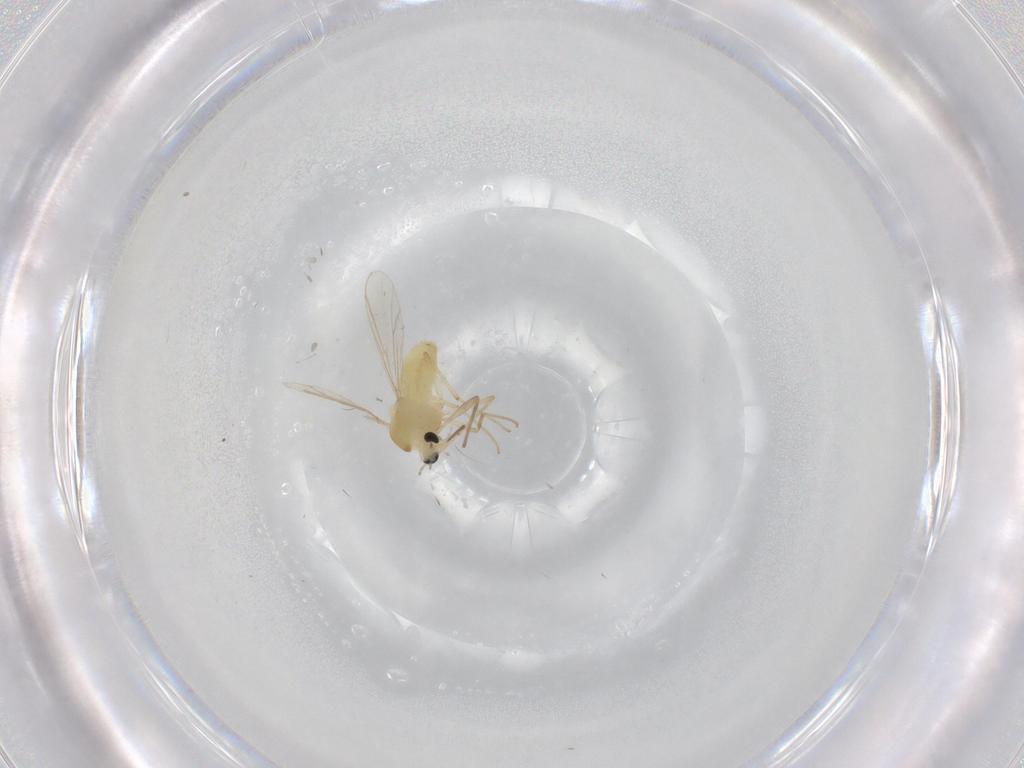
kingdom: Animalia
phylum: Arthropoda
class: Insecta
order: Diptera
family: Chironomidae
